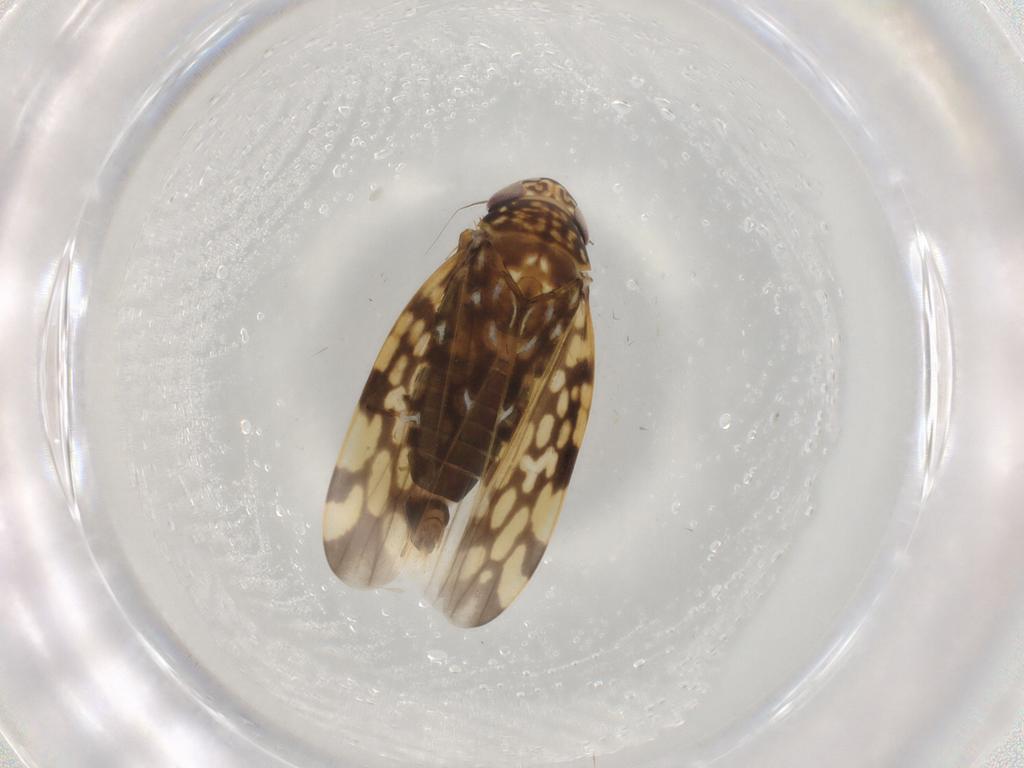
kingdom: Animalia
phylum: Arthropoda
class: Insecta
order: Hemiptera
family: Cicadellidae
